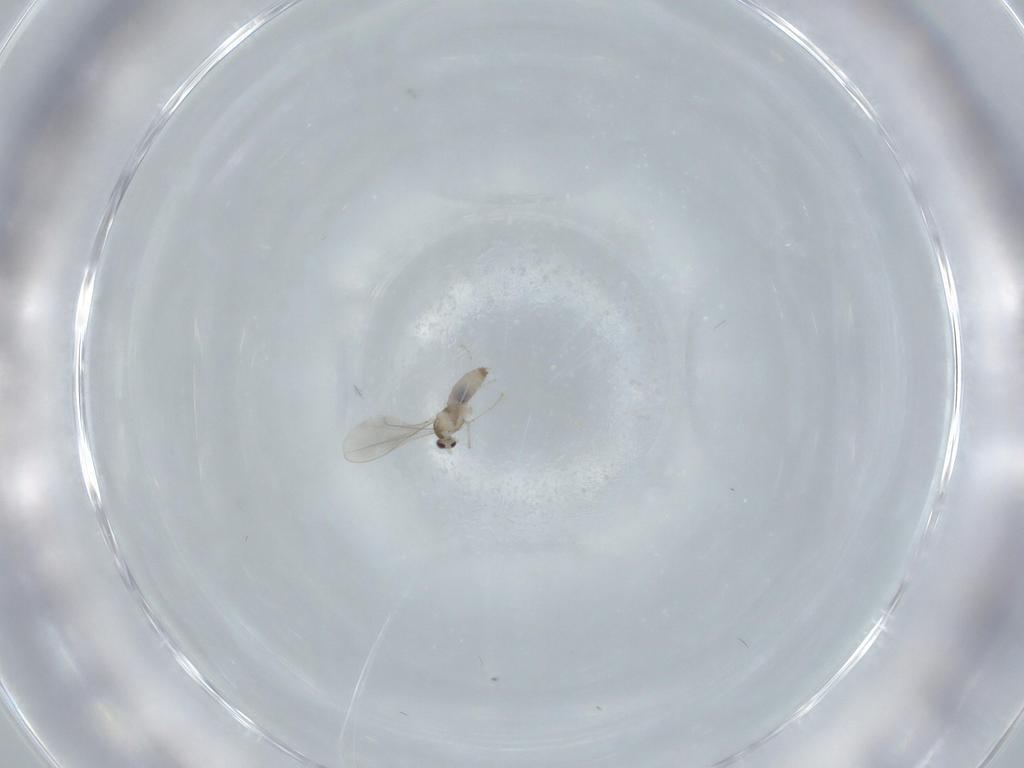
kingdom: Animalia
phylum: Arthropoda
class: Insecta
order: Diptera
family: Cecidomyiidae
